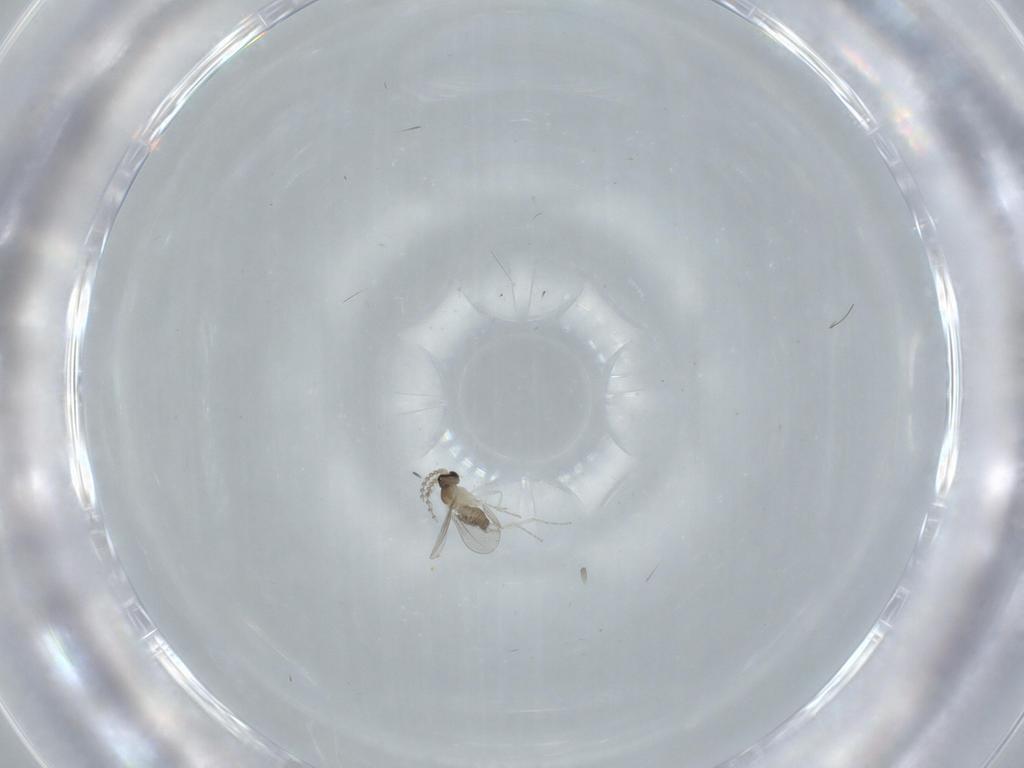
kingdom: Animalia
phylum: Arthropoda
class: Insecta
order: Diptera
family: Cecidomyiidae
